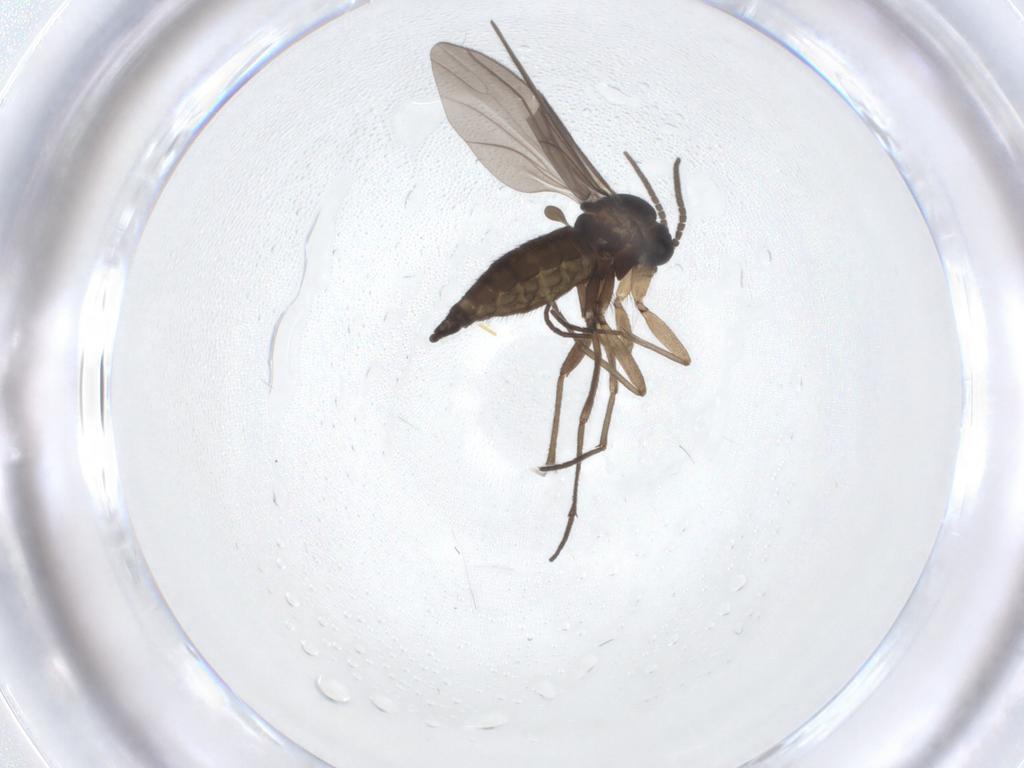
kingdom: Animalia
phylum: Arthropoda
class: Insecta
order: Diptera
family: Sciaridae
